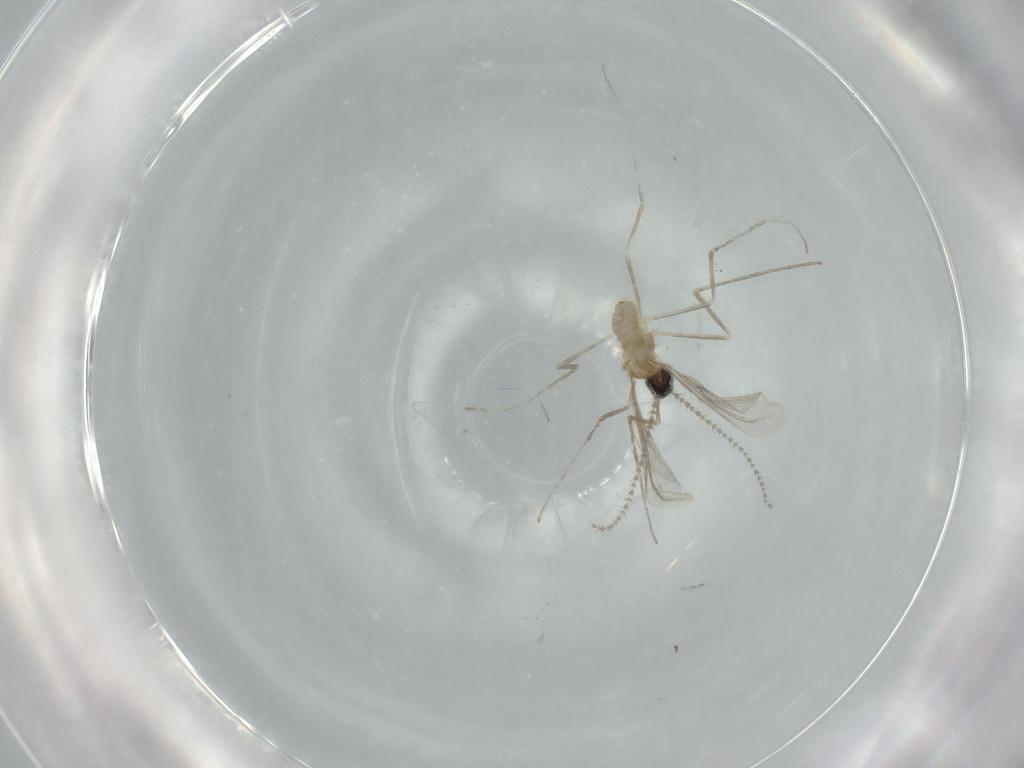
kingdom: Animalia
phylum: Arthropoda
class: Insecta
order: Diptera
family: Cecidomyiidae
